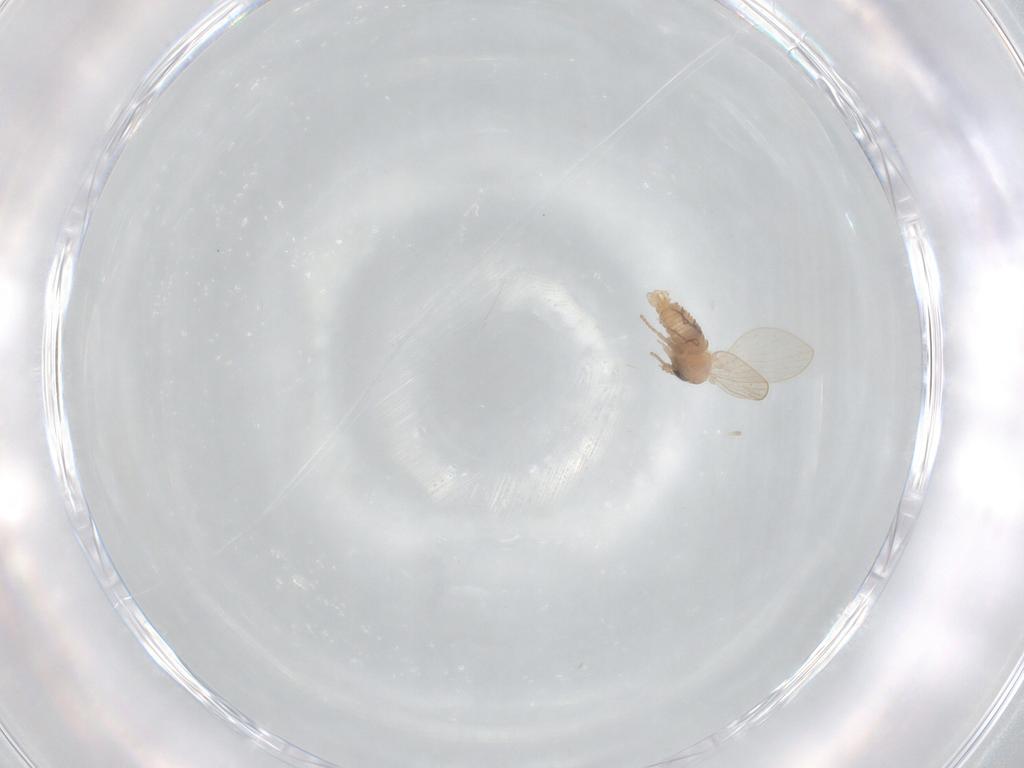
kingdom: Animalia
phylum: Arthropoda
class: Insecta
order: Diptera
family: Psychodidae
